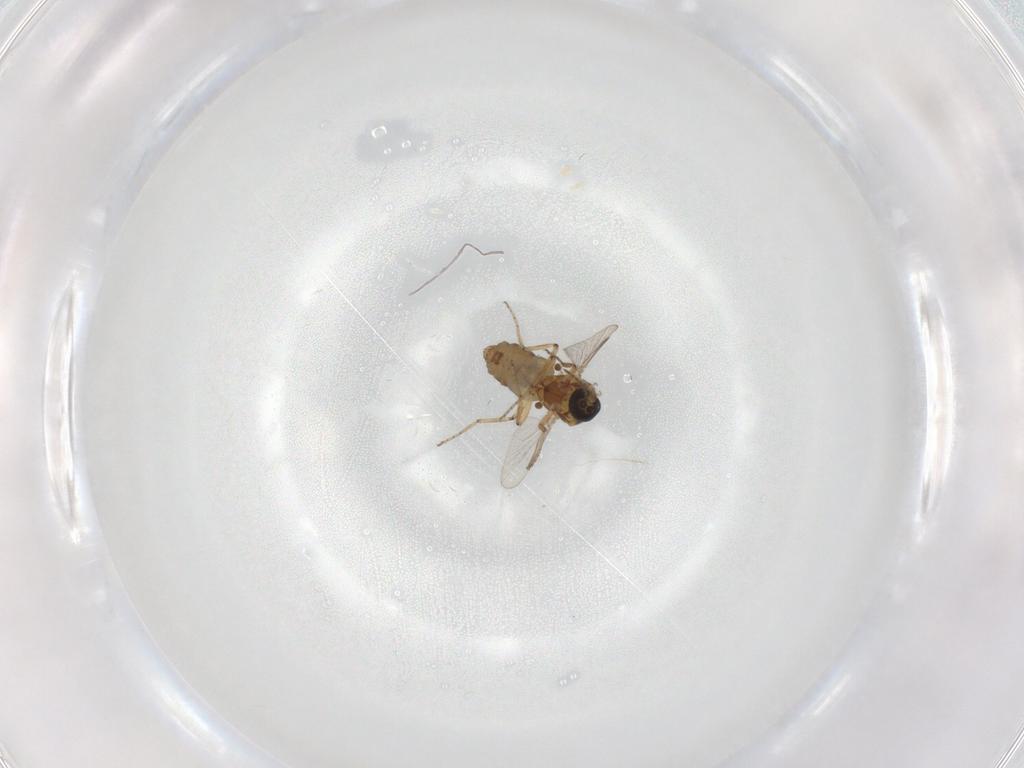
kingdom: Animalia
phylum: Arthropoda
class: Insecta
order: Diptera
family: Ceratopogonidae
